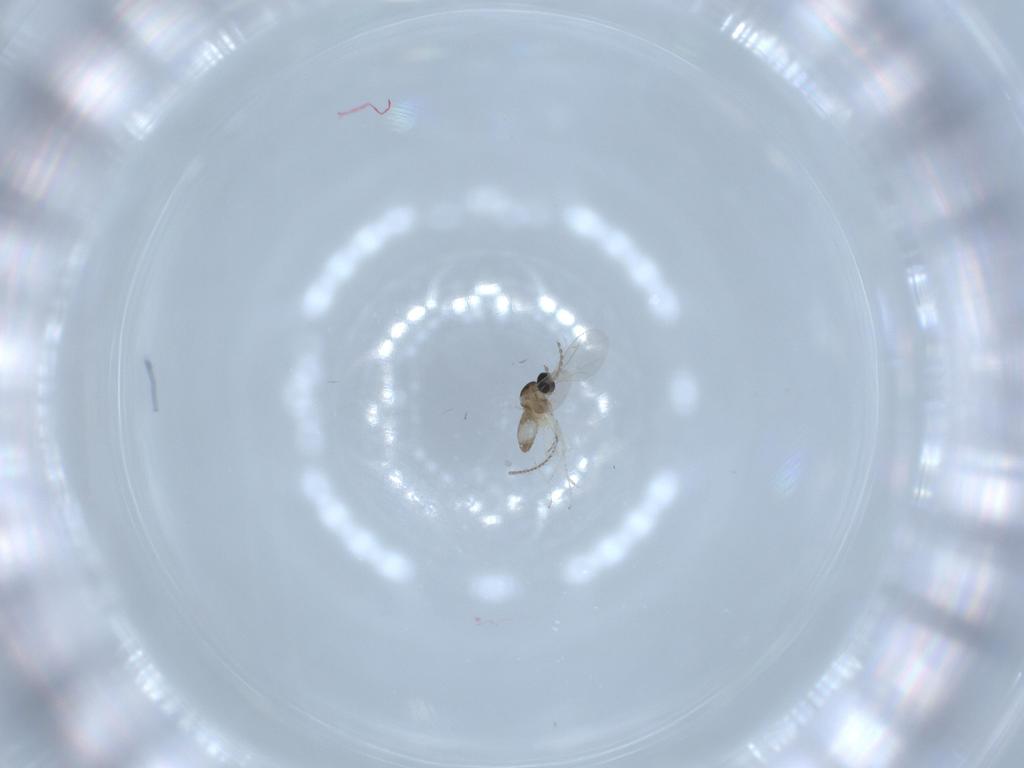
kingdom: Animalia
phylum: Arthropoda
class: Insecta
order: Diptera
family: Cecidomyiidae
